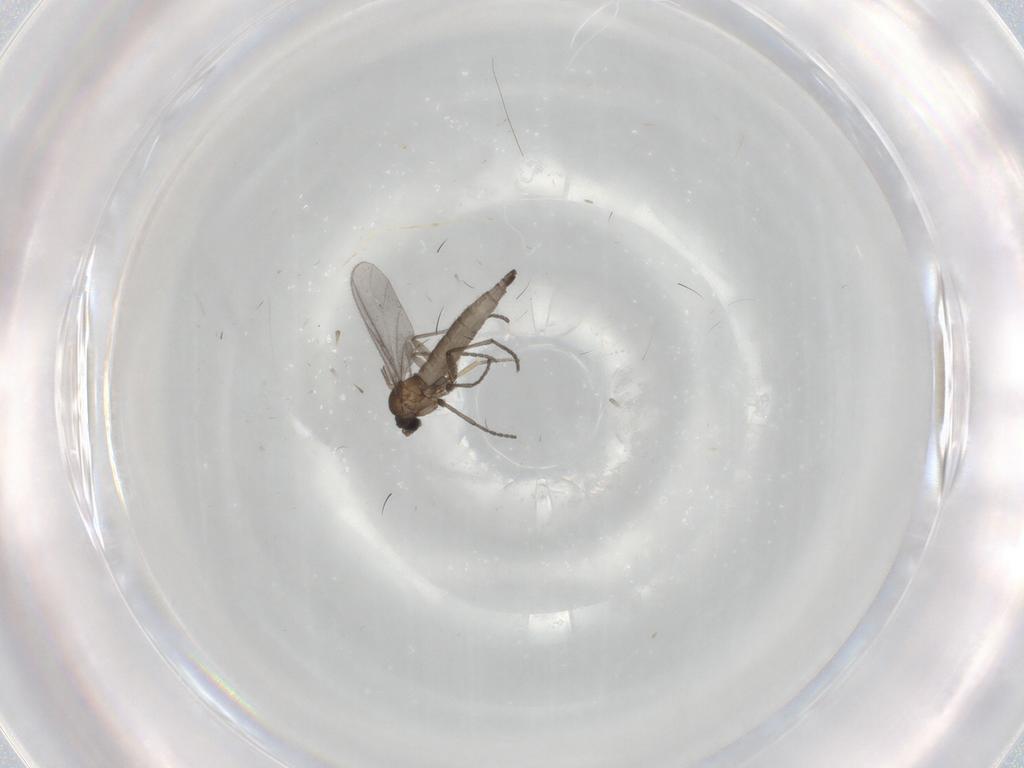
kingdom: Animalia
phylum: Arthropoda
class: Insecta
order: Diptera
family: Sciaridae
